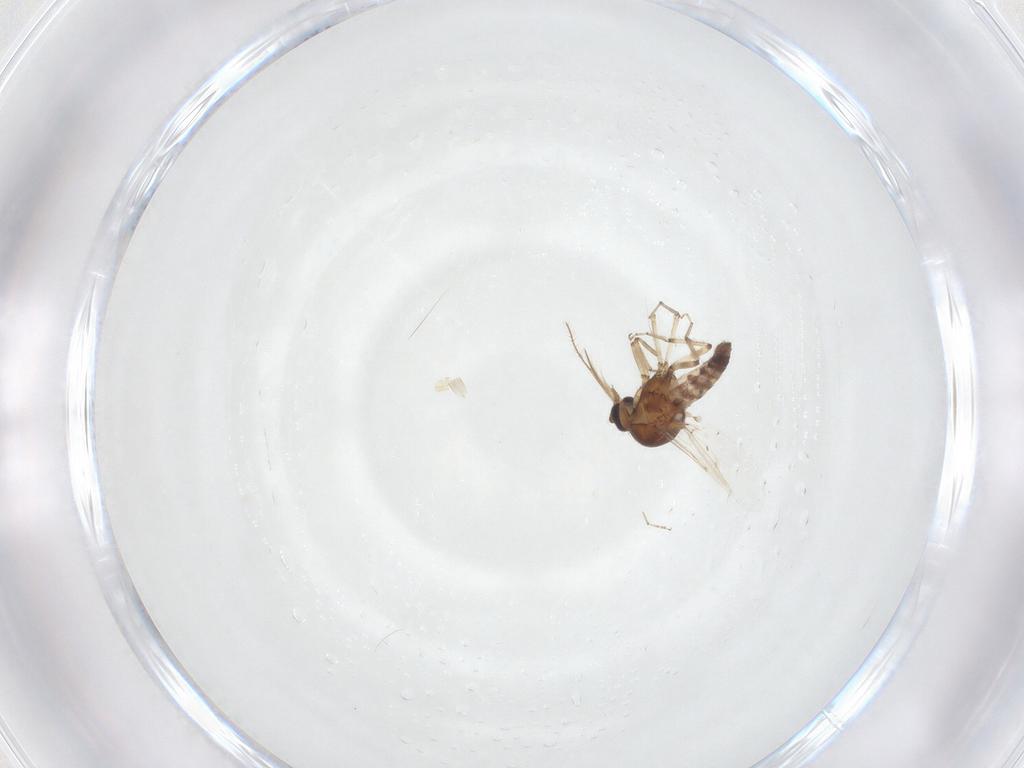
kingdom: Animalia
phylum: Arthropoda
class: Insecta
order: Diptera
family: Ceratopogonidae
